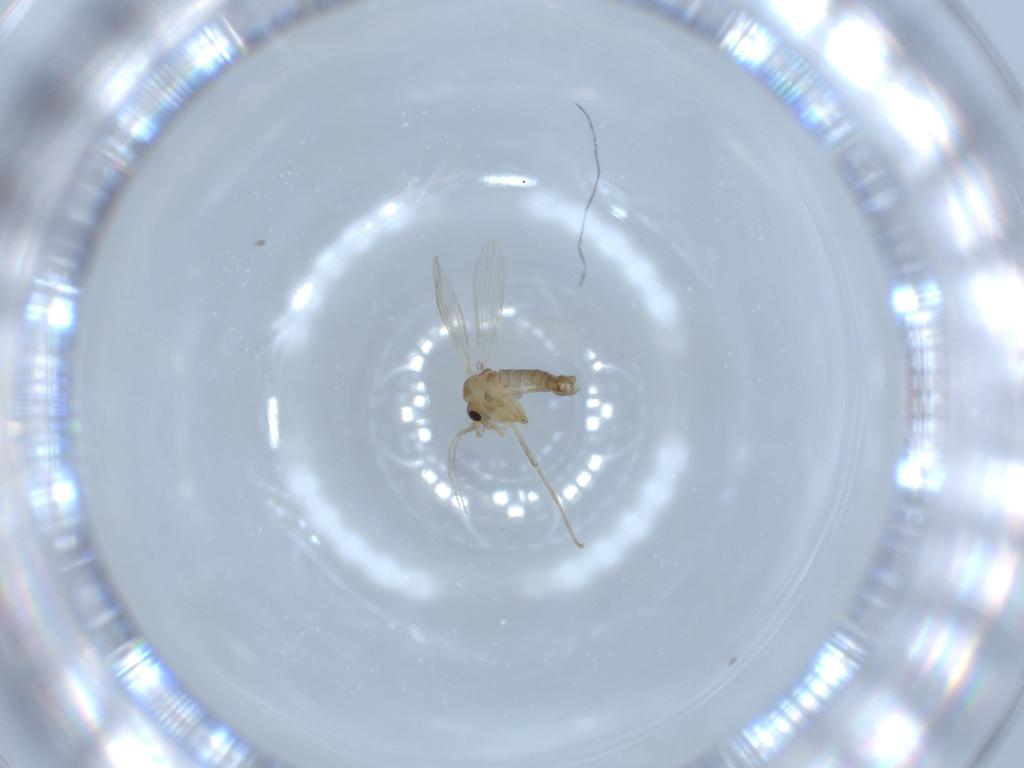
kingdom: Animalia
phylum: Arthropoda
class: Insecta
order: Diptera
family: Psychodidae
